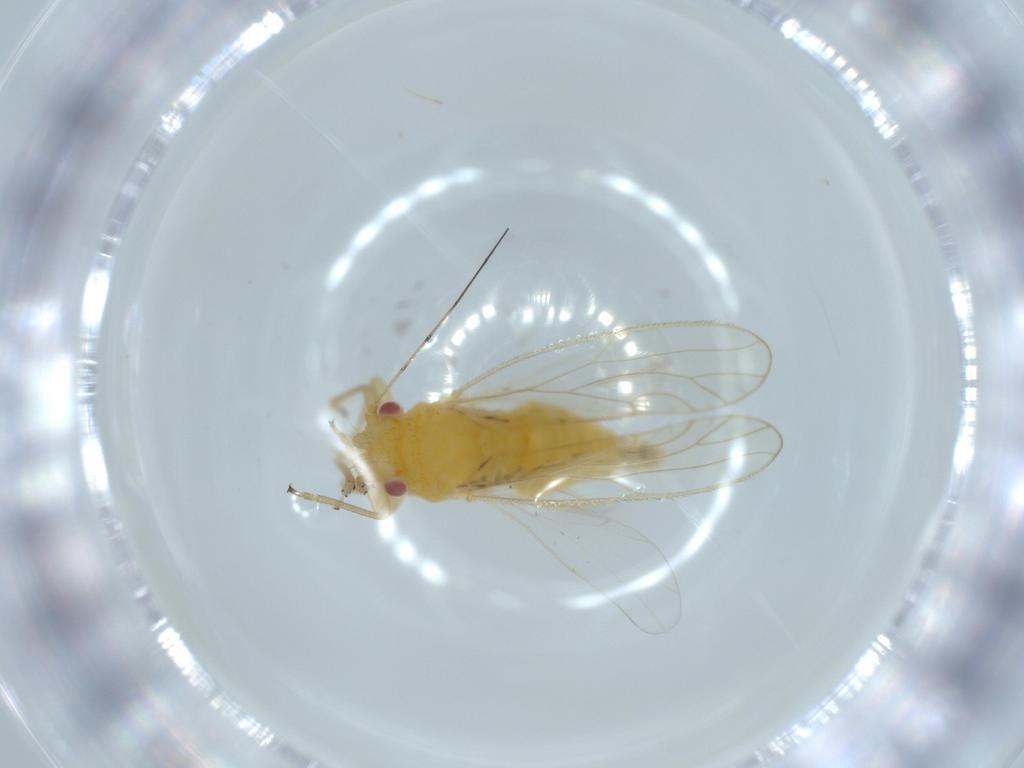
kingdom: Animalia
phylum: Arthropoda
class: Insecta
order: Hemiptera
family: Psyllidae
